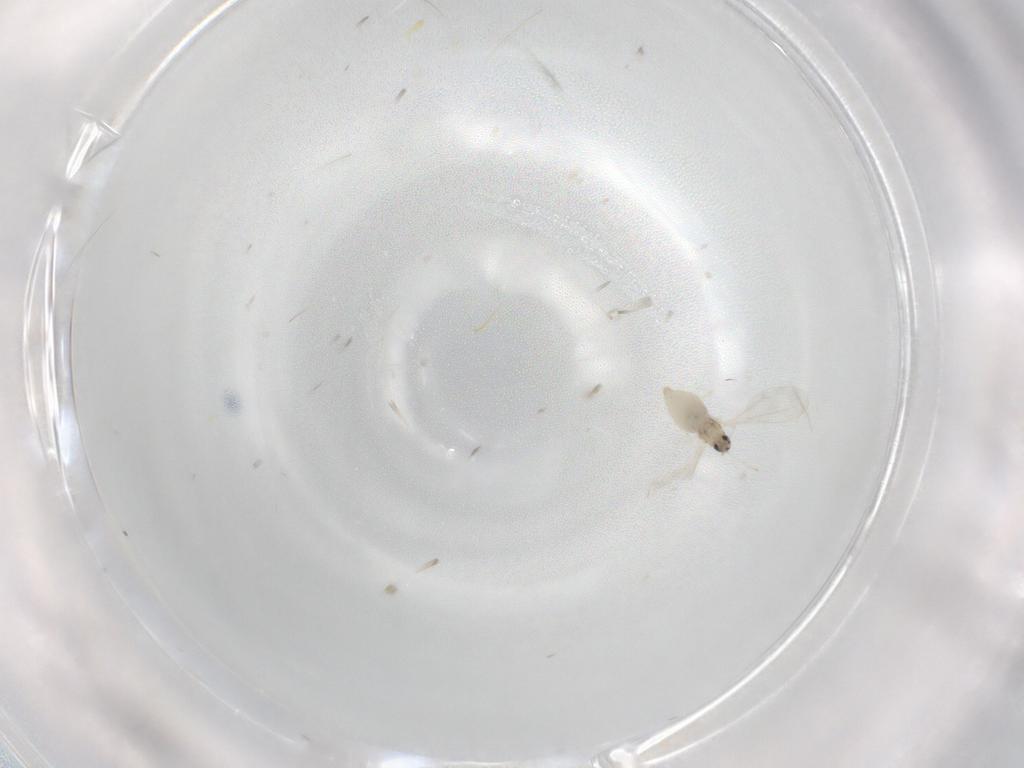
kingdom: Animalia
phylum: Arthropoda
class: Insecta
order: Diptera
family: Cecidomyiidae
